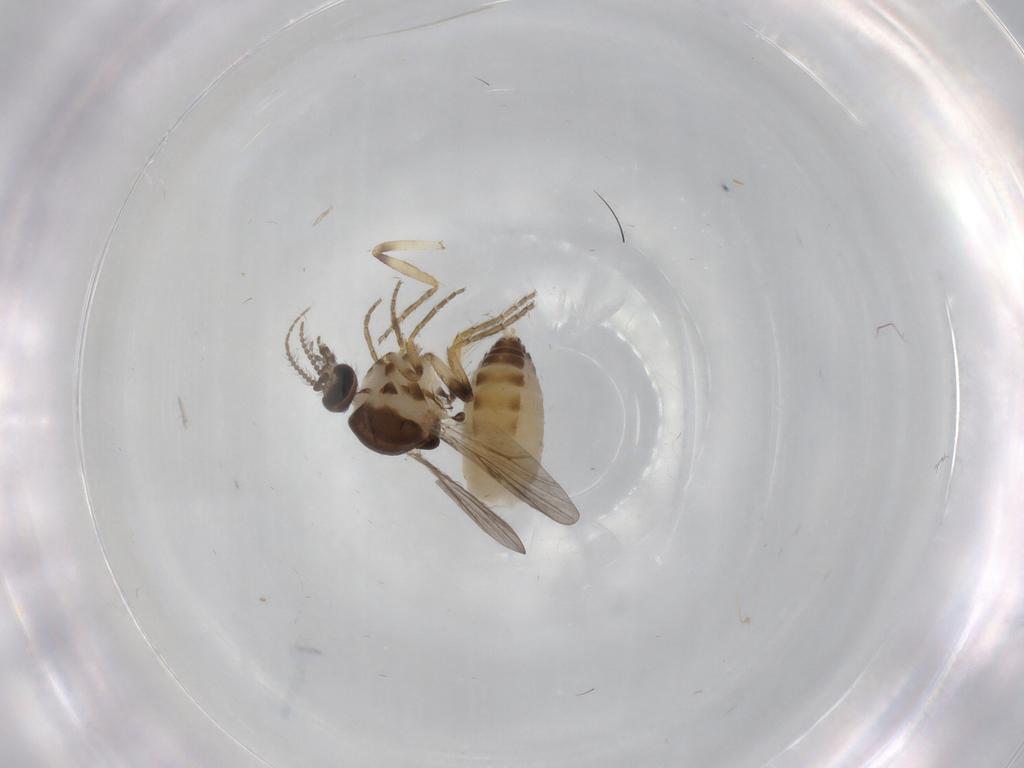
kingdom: Animalia
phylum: Arthropoda
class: Insecta
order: Diptera
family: Ceratopogonidae
